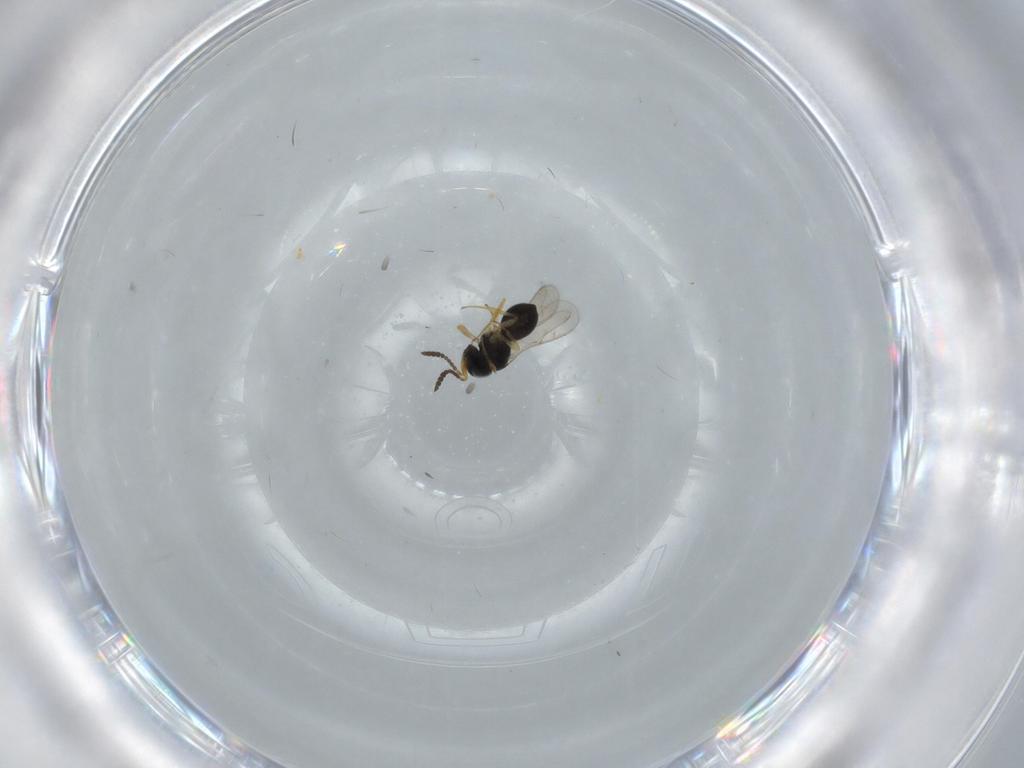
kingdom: Animalia
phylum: Arthropoda
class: Insecta
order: Hymenoptera
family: Scelionidae
